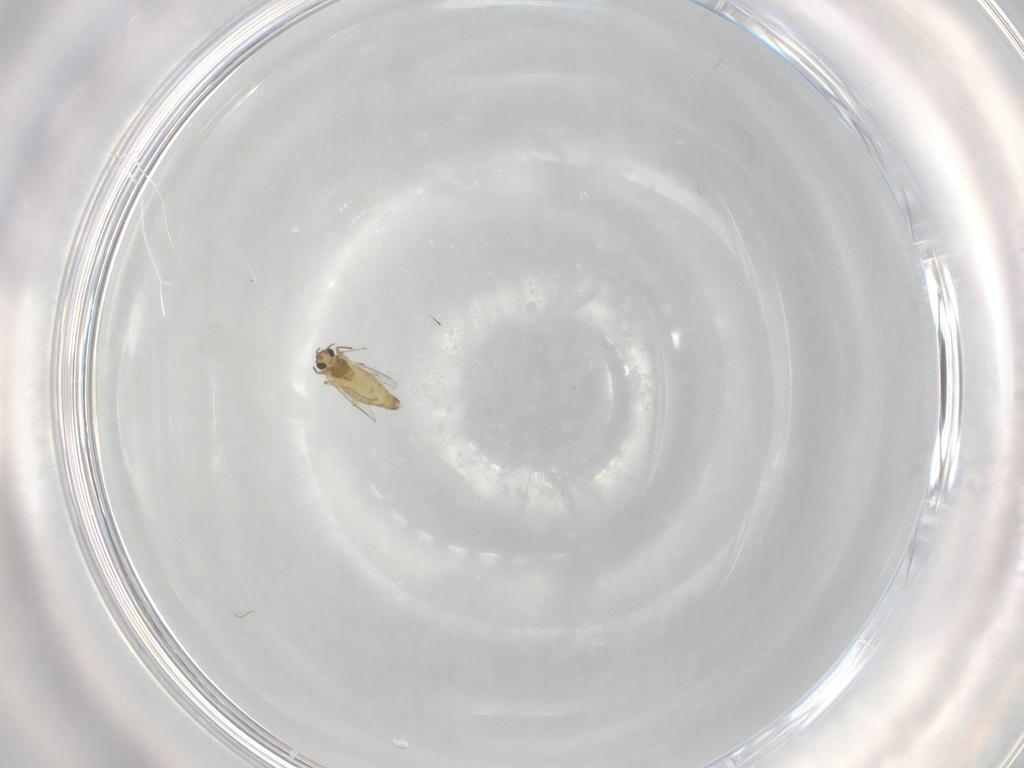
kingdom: Animalia
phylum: Arthropoda
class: Insecta
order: Diptera
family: Chironomidae
